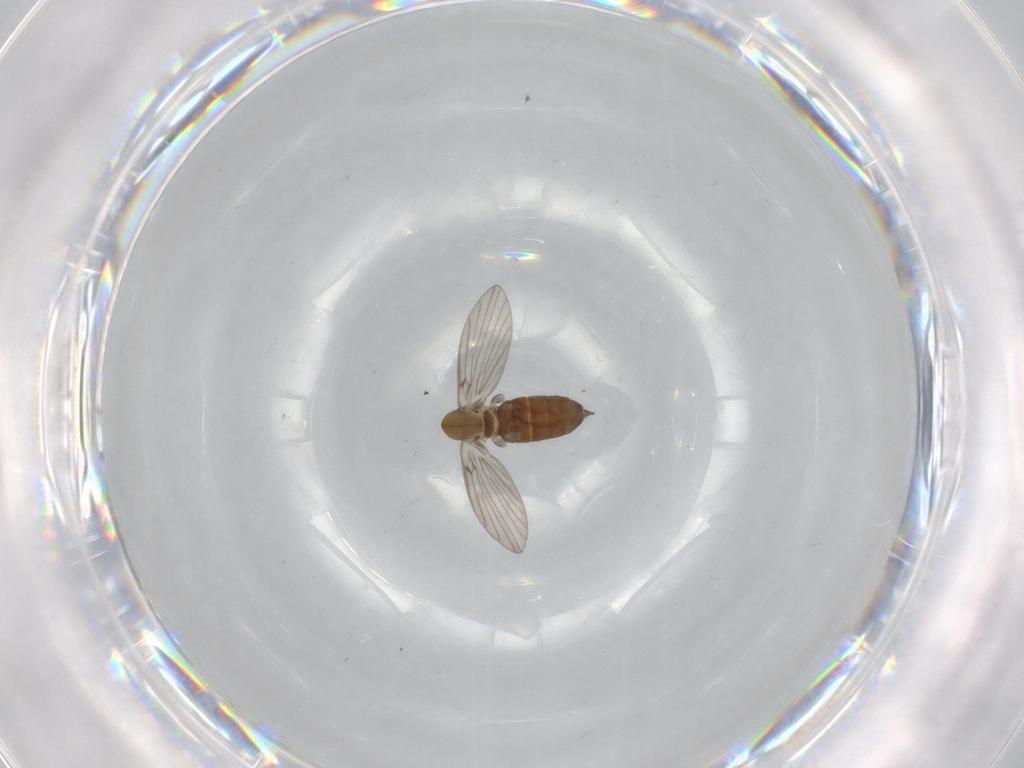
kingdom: Animalia
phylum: Arthropoda
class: Insecta
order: Diptera
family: Psychodidae
